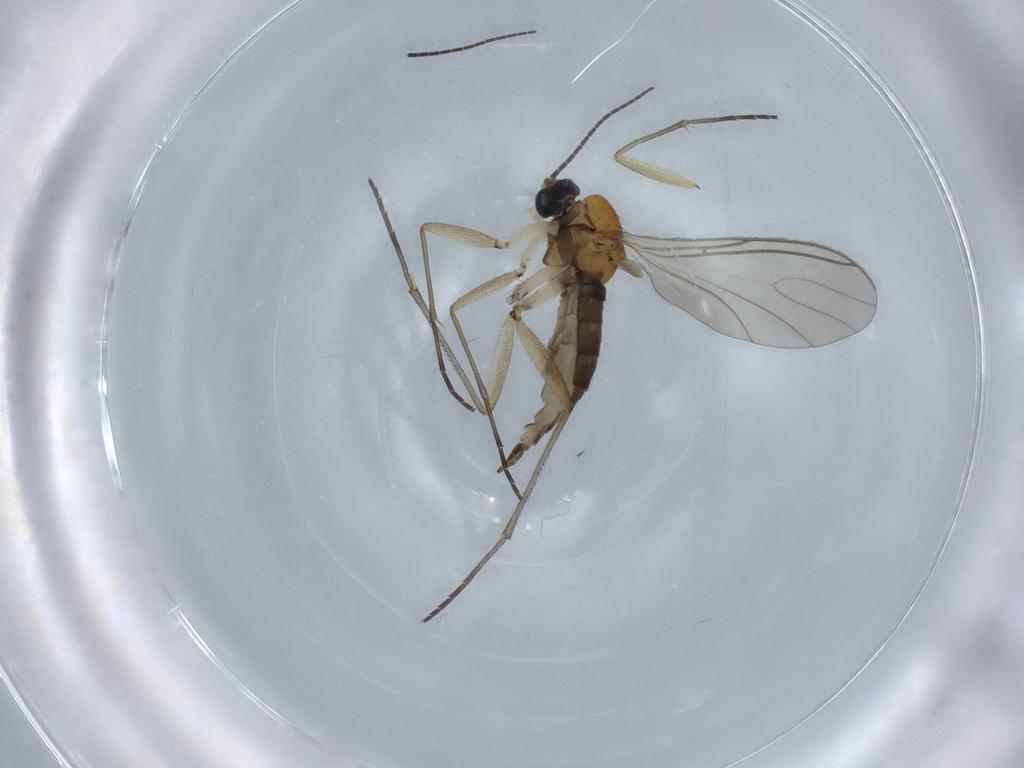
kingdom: Animalia
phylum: Arthropoda
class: Insecta
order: Diptera
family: Sciaridae
